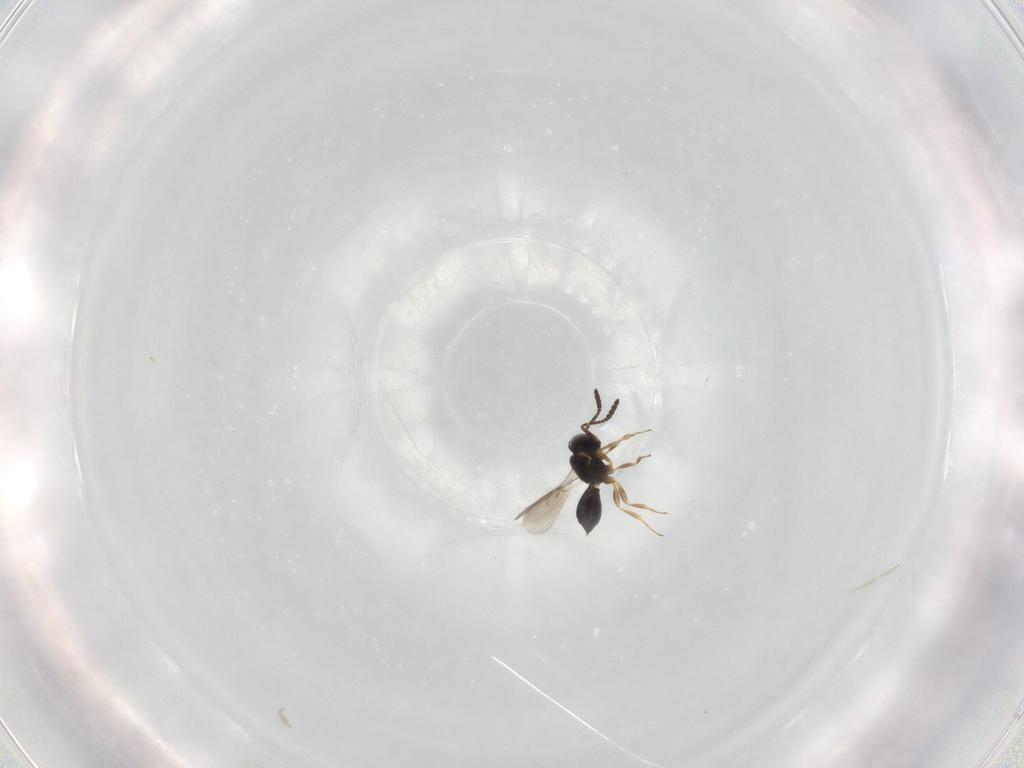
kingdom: Animalia
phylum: Arthropoda
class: Insecta
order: Hymenoptera
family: Scelionidae
